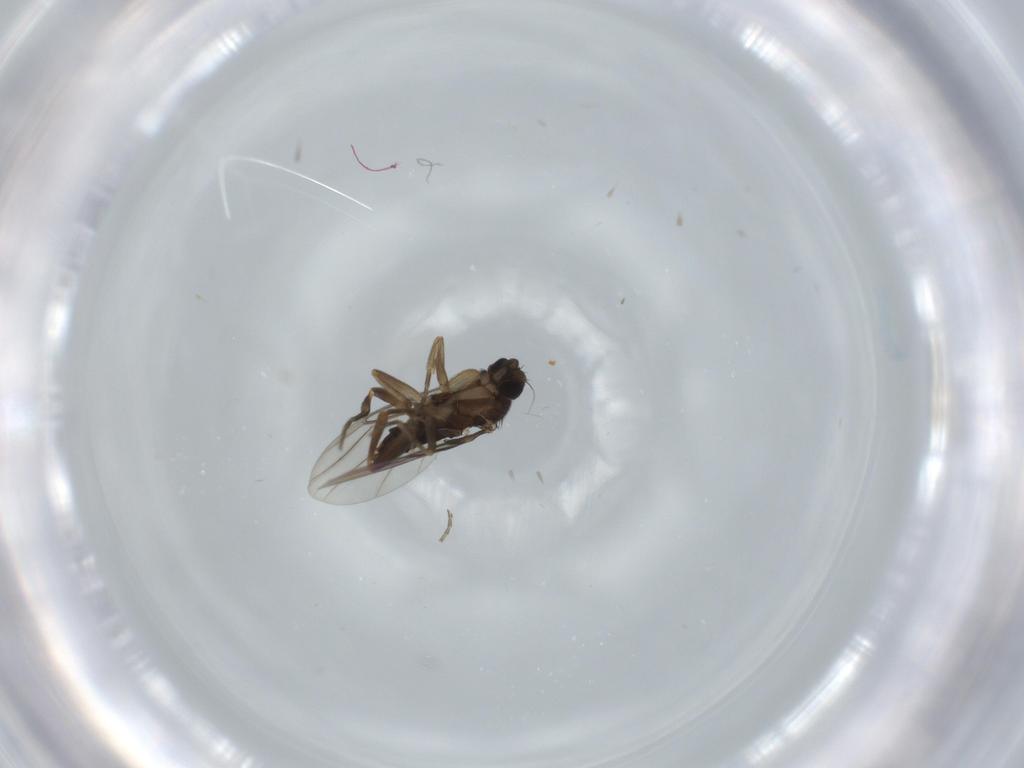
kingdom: Animalia
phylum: Arthropoda
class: Insecta
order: Diptera
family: Phoridae
